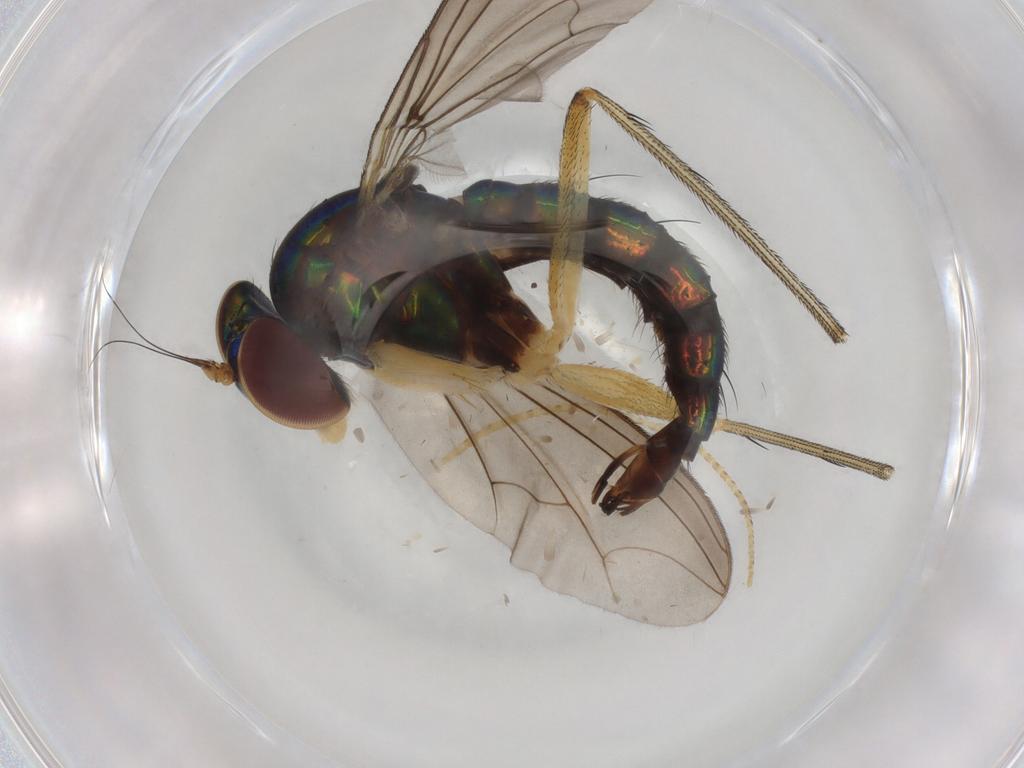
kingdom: Animalia
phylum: Arthropoda
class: Insecta
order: Diptera
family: Dolichopodidae
